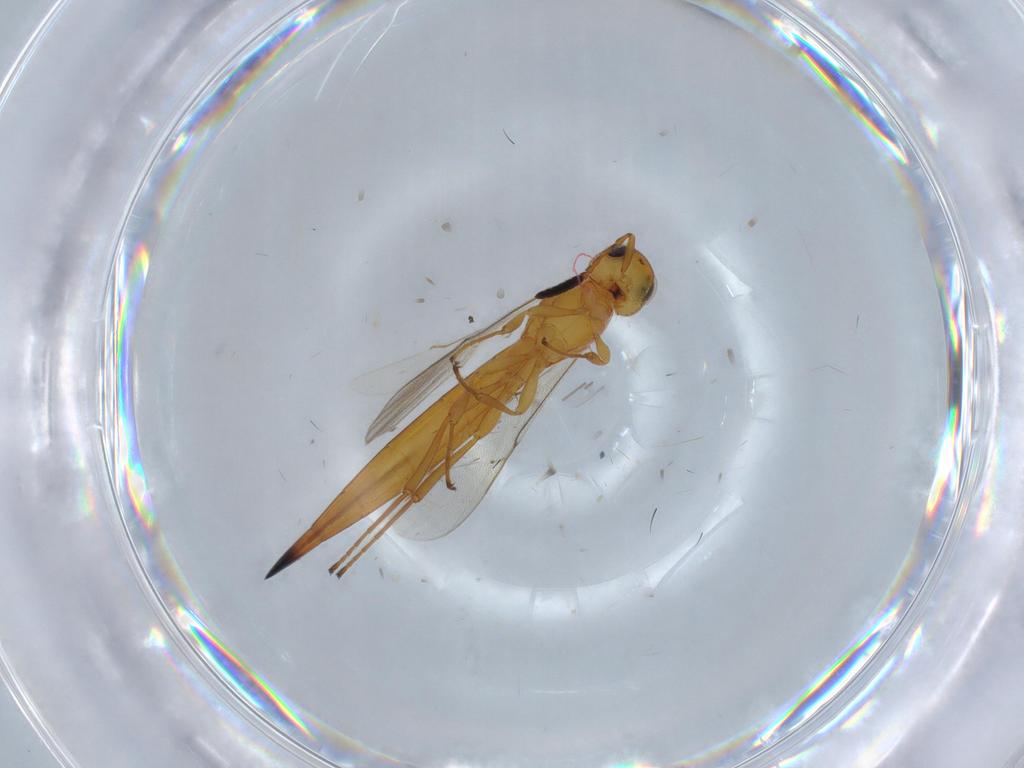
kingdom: Animalia
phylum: Arthropoda
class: Insecta
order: Hymenoptera
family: Scelionidae
